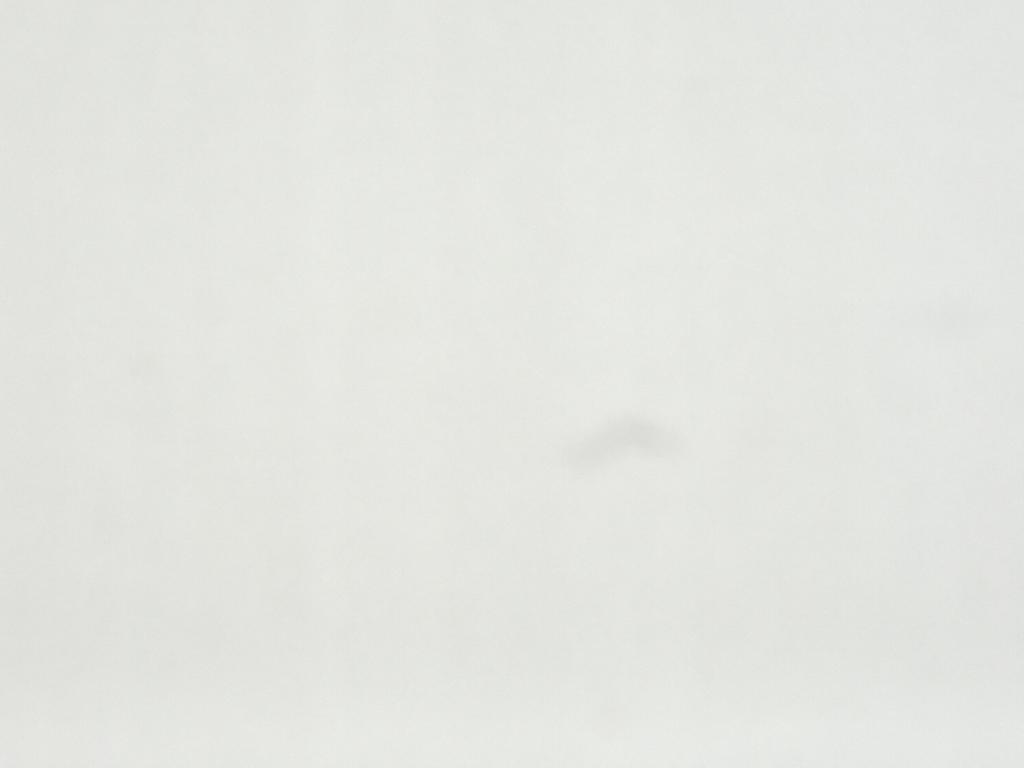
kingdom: Animalia
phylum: Arthropoda
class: Insecta
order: Diptera
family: Mycetophilidae
